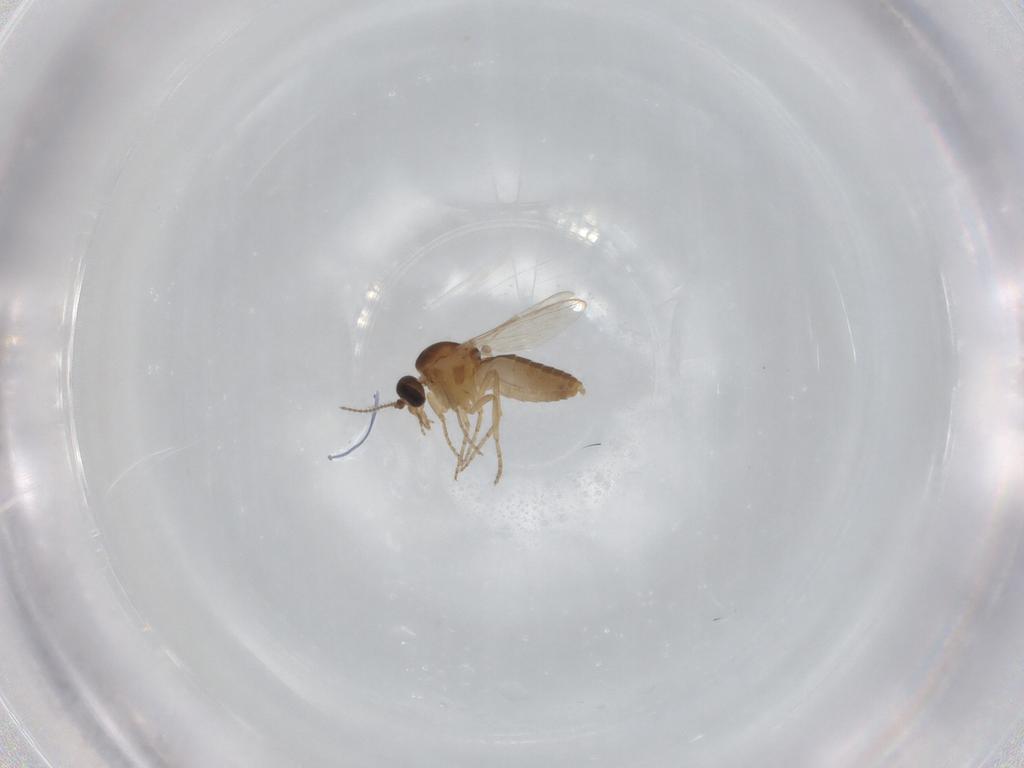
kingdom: Animalia
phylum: Arthropoda
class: Insecta
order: Diptera
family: Ceratopogonidae
